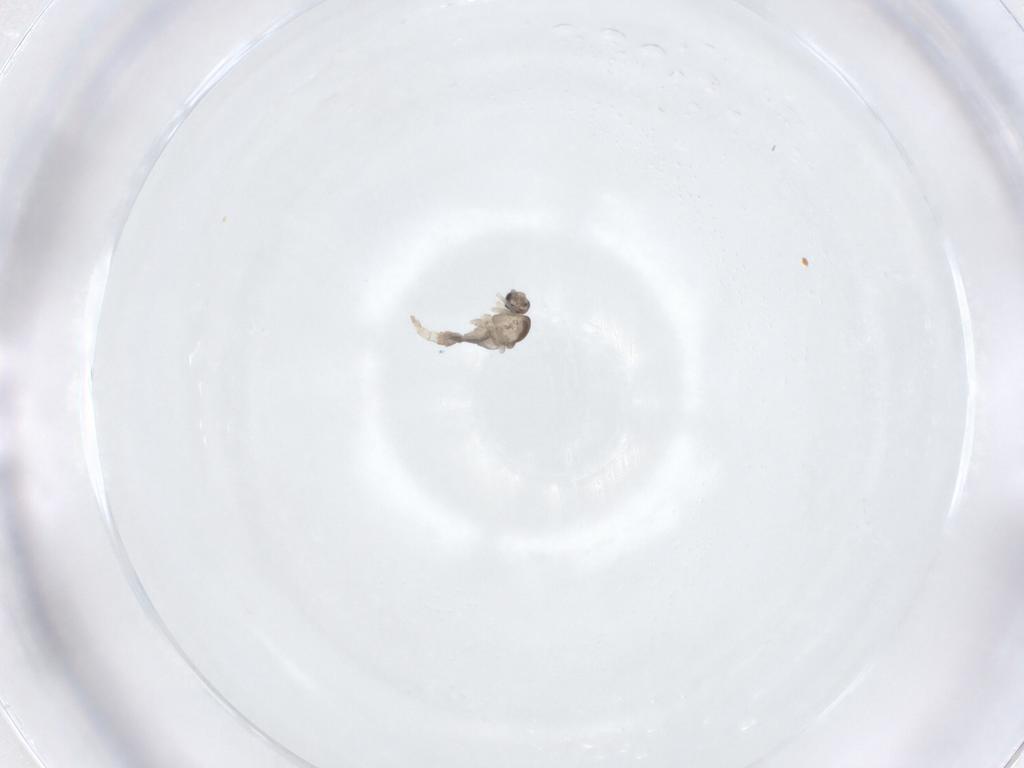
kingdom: Animalia
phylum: Arthropoda
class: Insecta
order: Diptera
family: Cecidomyiidae
